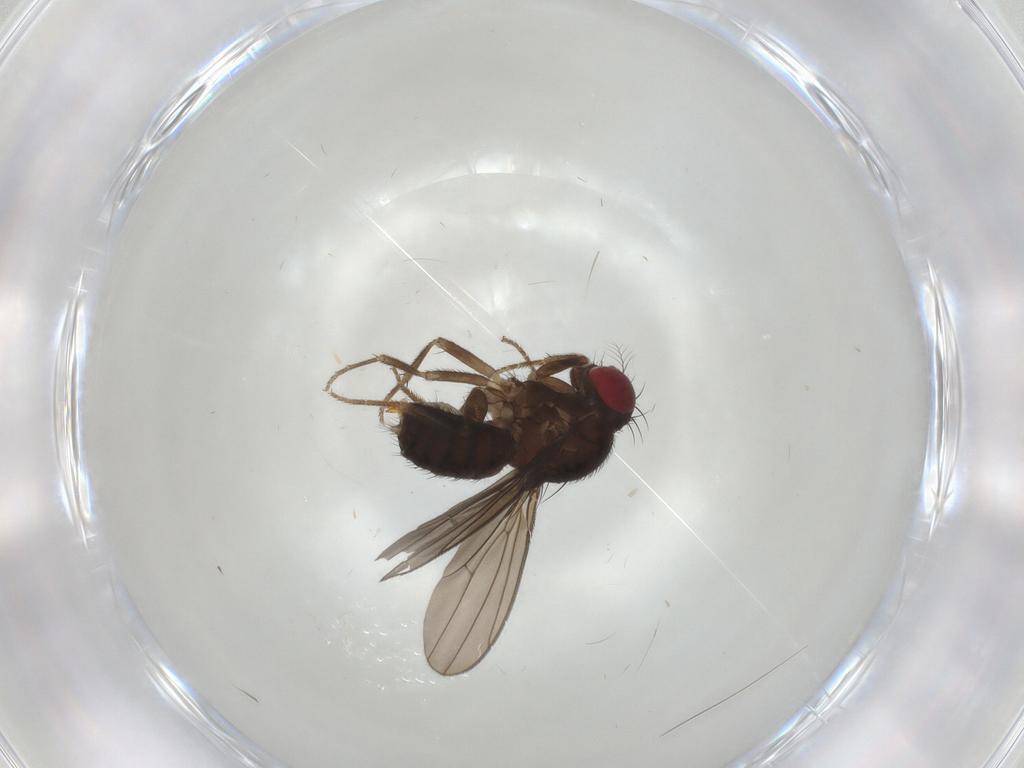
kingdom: Animalia
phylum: Arthropoda
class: Insecta
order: Diptera
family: Drosophilidae
